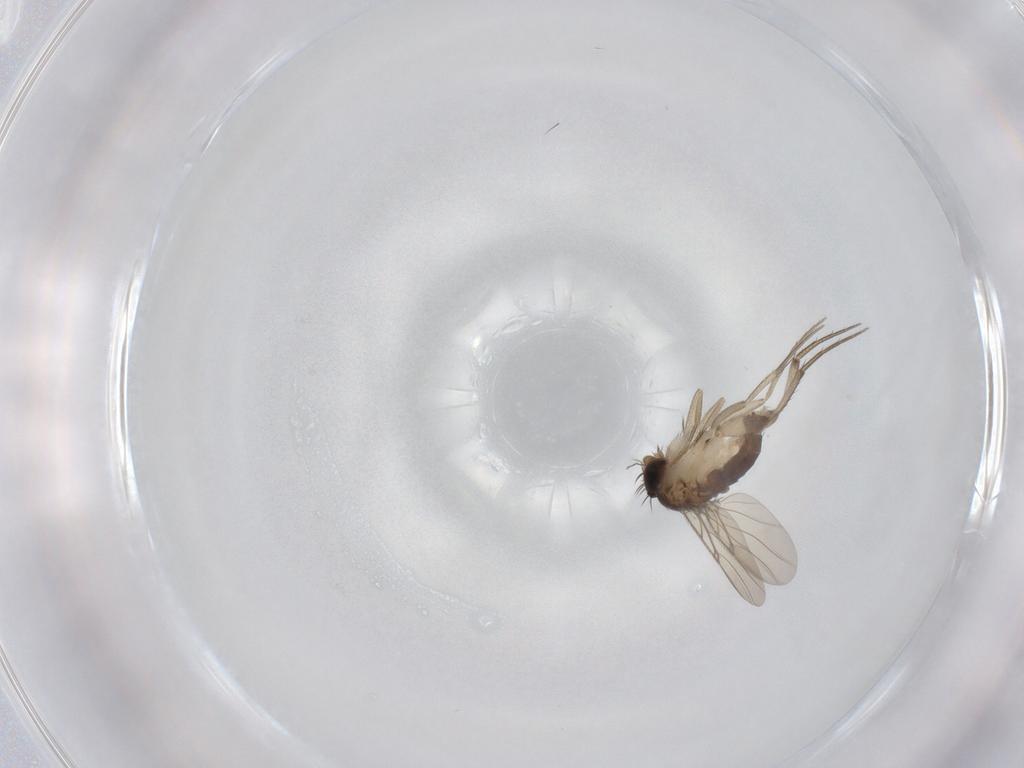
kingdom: Animalia
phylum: Arthropoda
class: Insecta
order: Diptera
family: Phoridae
